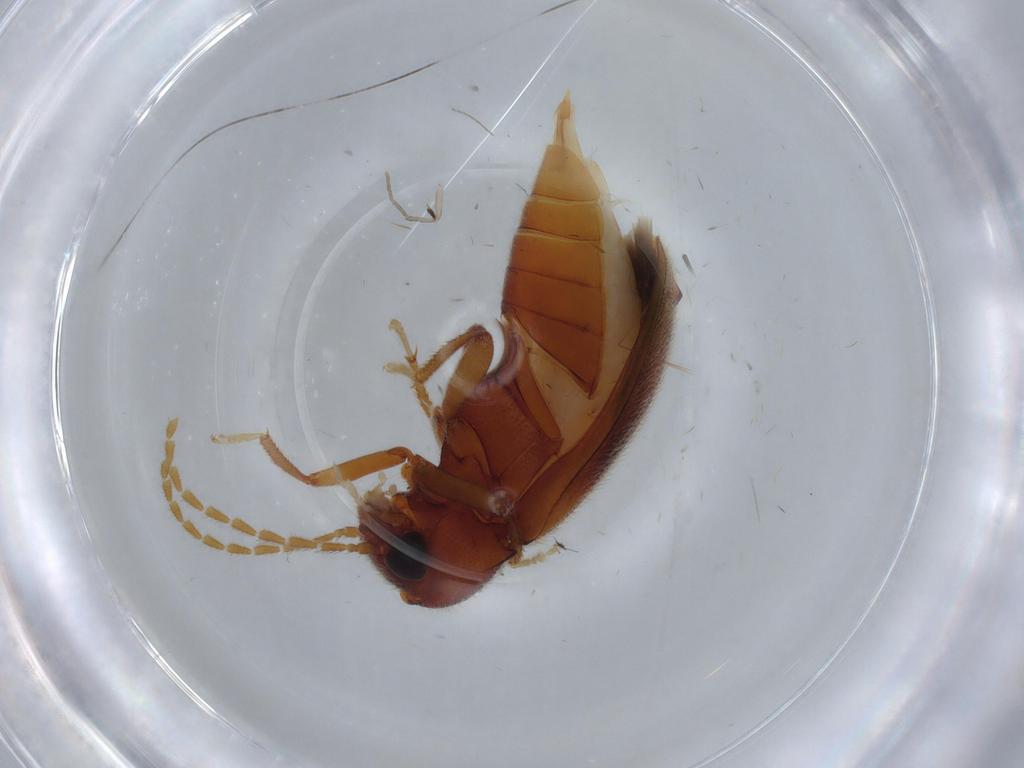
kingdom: Animalia
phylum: Arthropoda
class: Insecta
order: Coleoptera
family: Ptilodactylidae
